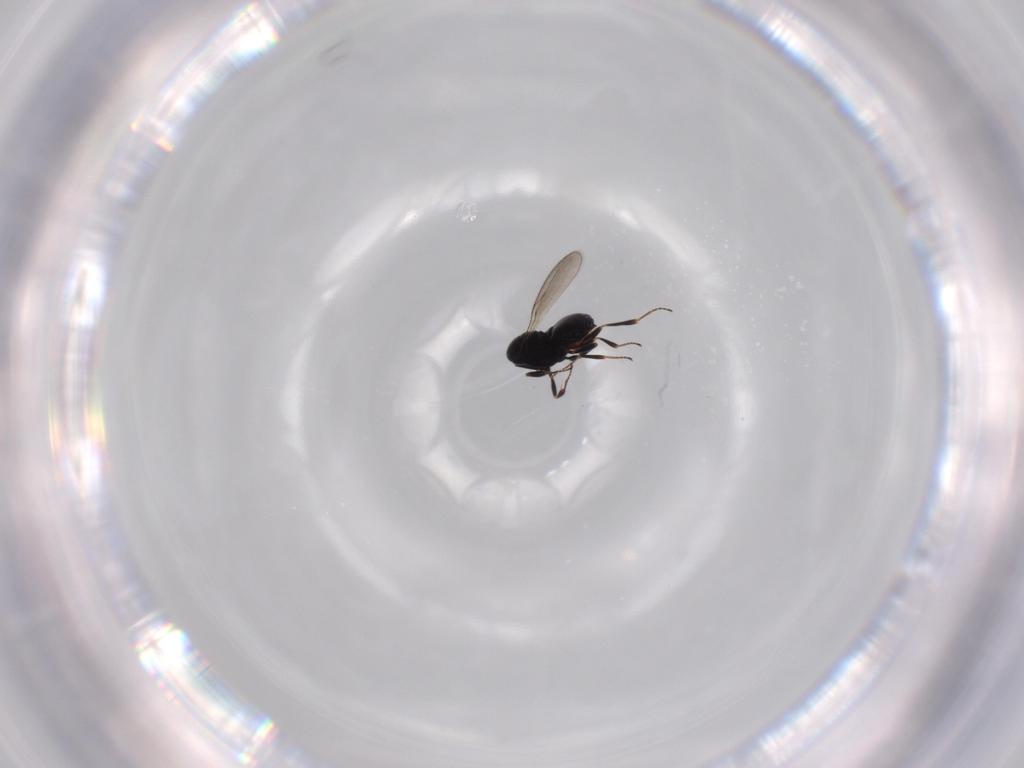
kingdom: Animalia
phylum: Arthropoda
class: Insecta
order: Hymenoptera
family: Scelionidae
